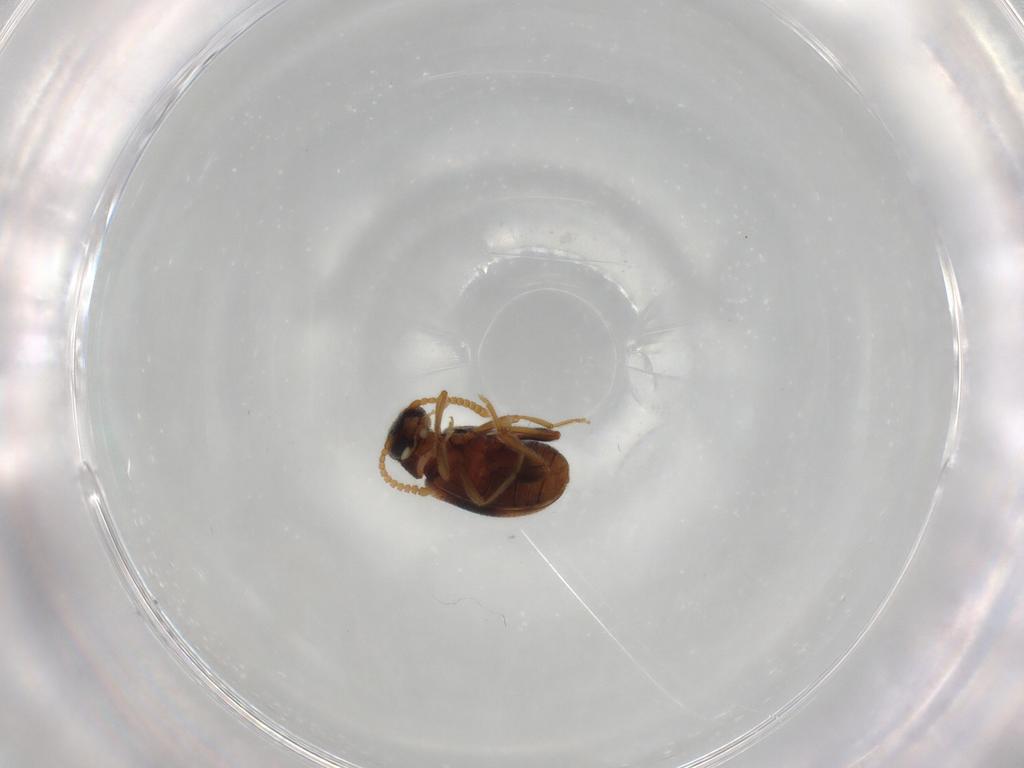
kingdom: Animalia
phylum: Arthropoda
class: Insecta
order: Coleoptera
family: Aderidae
